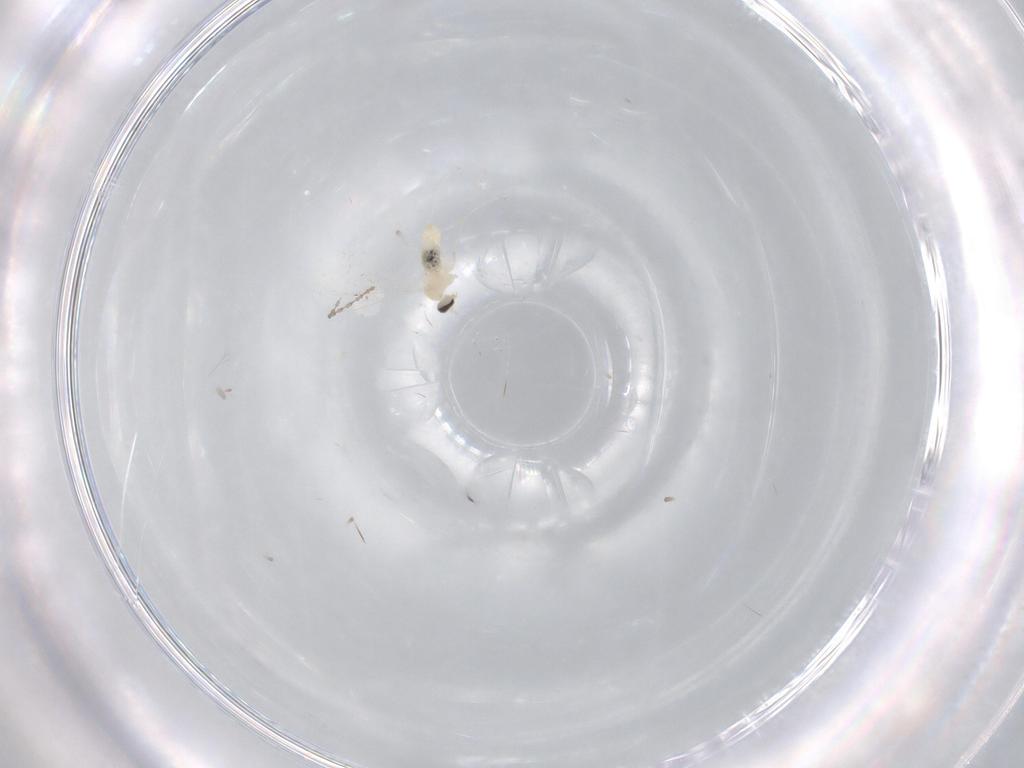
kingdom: Animalia
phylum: Arthropoda
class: Insecta
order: Diptera
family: Cecidomyiidae
